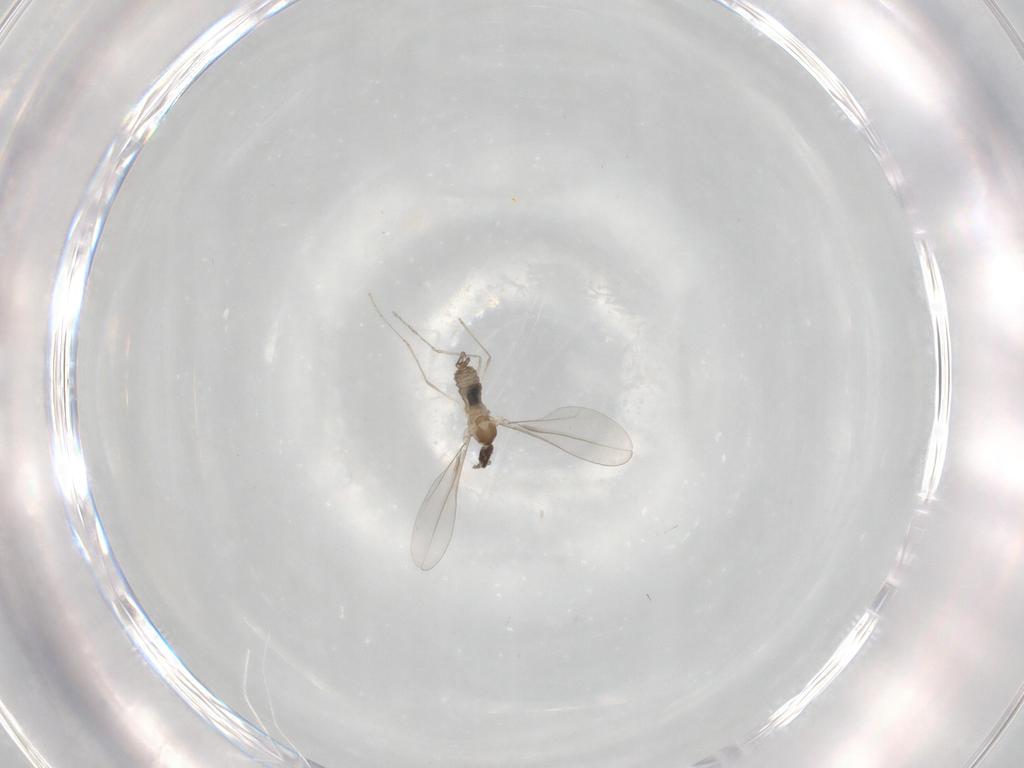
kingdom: Animalia
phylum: Arthropoda
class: Insecta
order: Diptera
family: Cecidomyiidae
